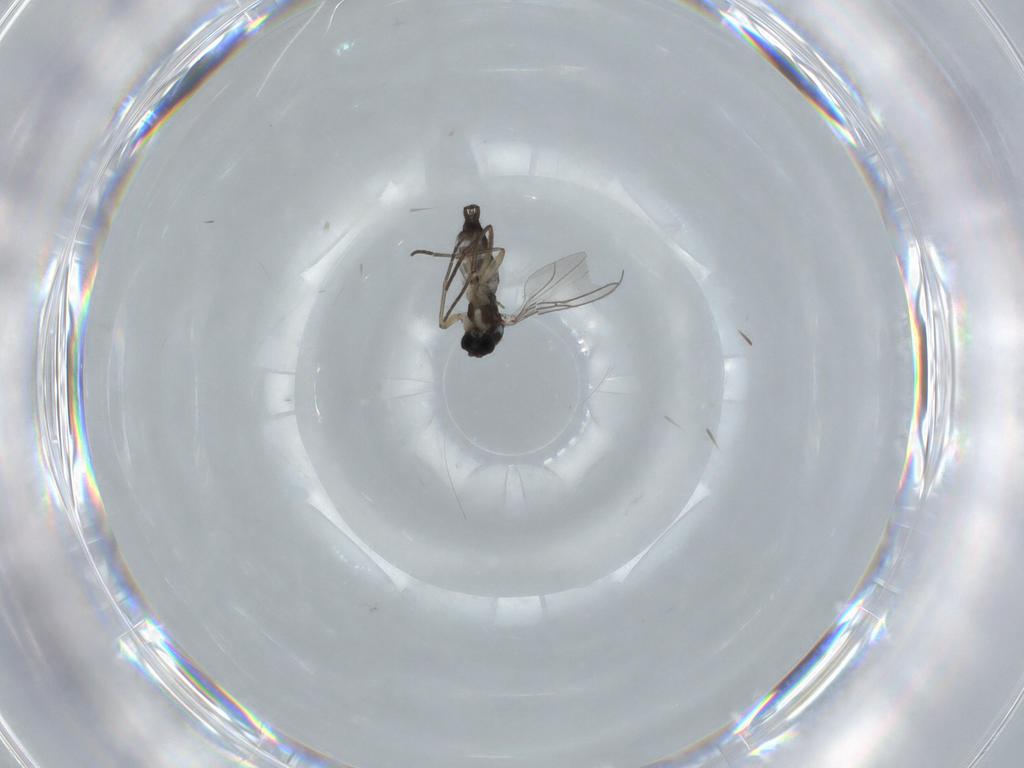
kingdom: Animalia
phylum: Arthropoda
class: Insecta
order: Diptera
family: Sciaridae
